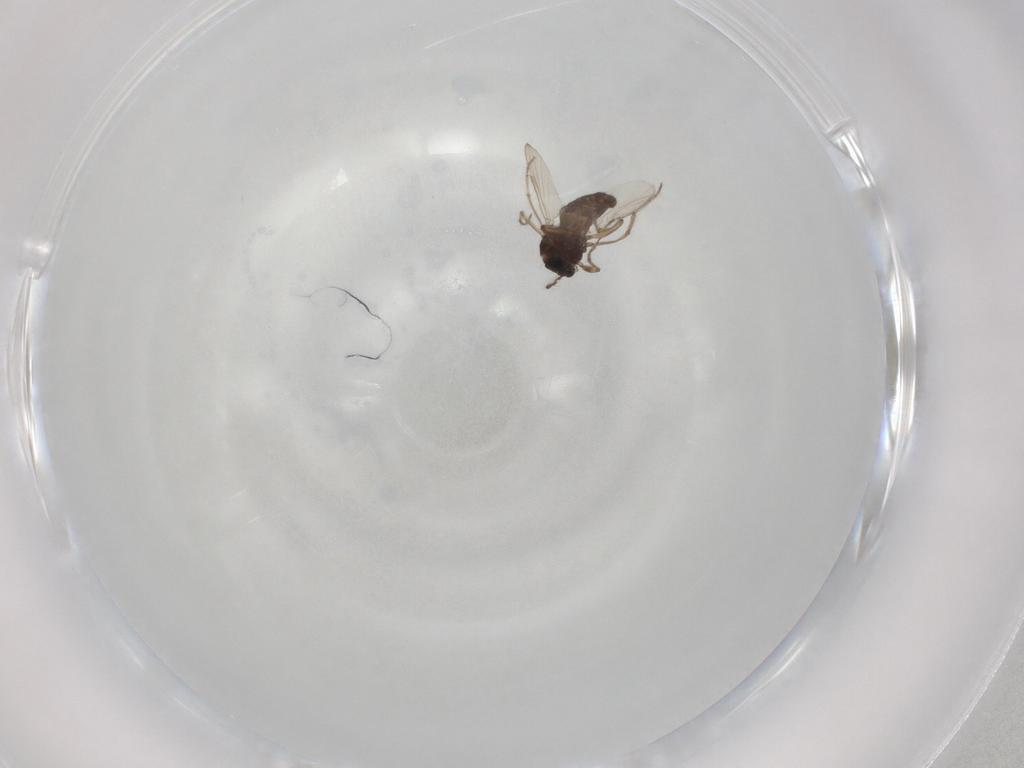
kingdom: Animalia
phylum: Arthropoda
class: Insecta
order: Diptera
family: Ceratopogonidae
